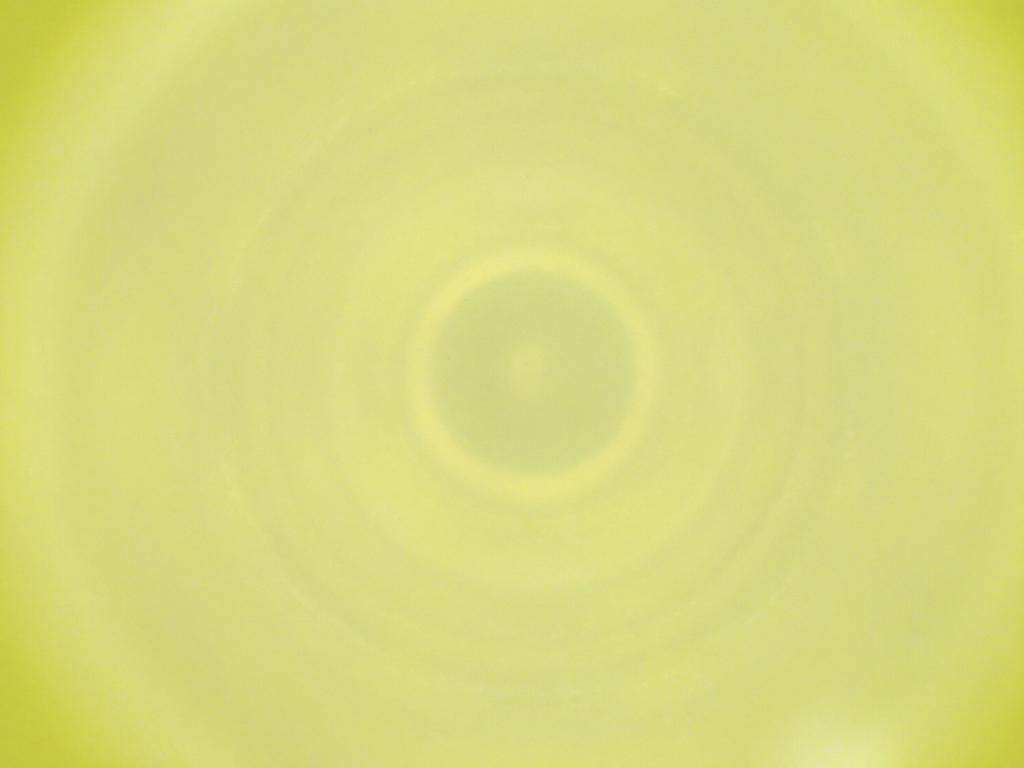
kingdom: Animalia
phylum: Arthropoda
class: Insecta
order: Diptera
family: Cecidomyiidae
